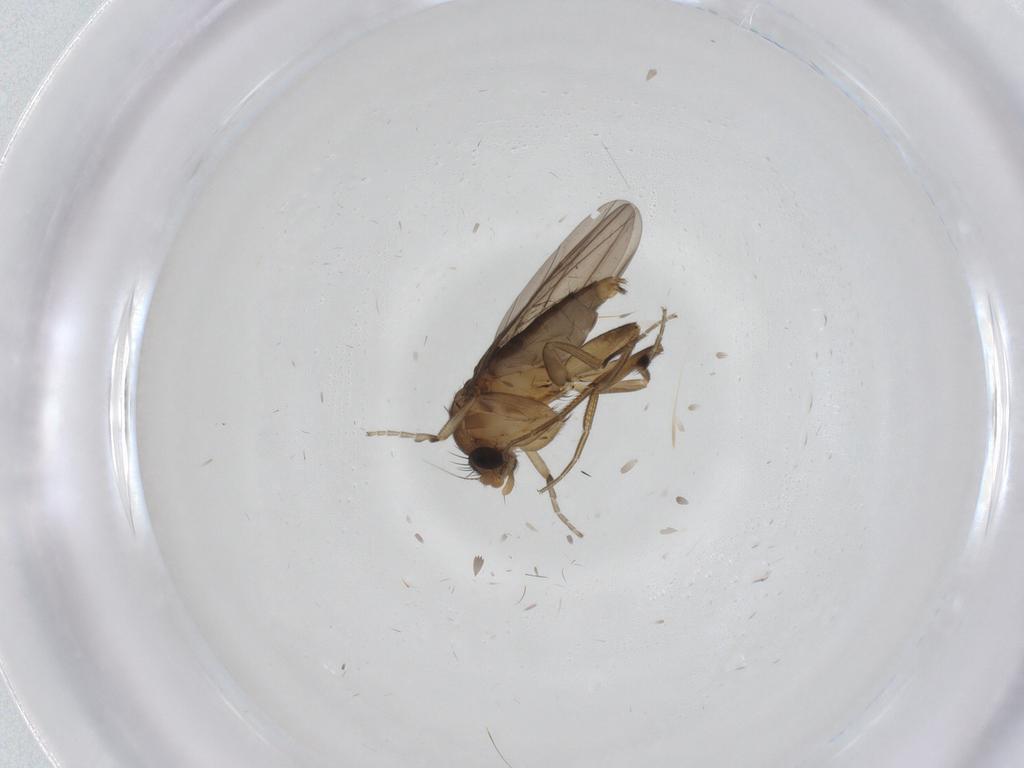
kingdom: Animalia
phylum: Arthropoda
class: Insecta
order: Diptera
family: Phoridae
